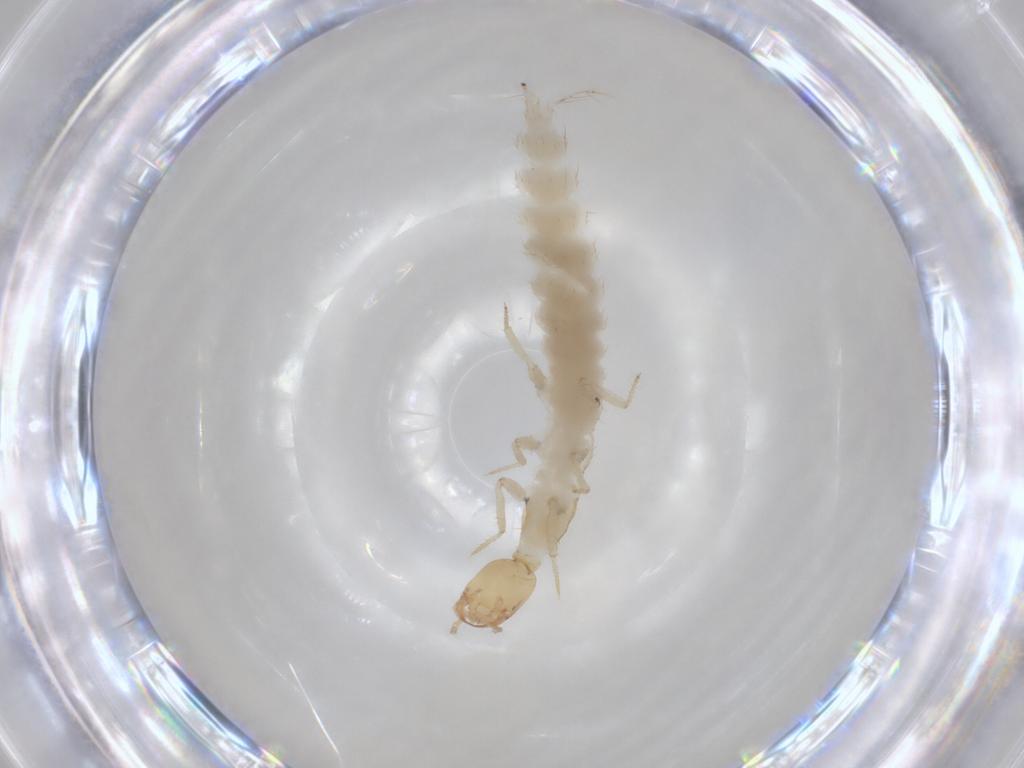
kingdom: Animalia
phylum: Arthropoda
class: Insecta
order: Coleoptera
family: Staphylinidae
